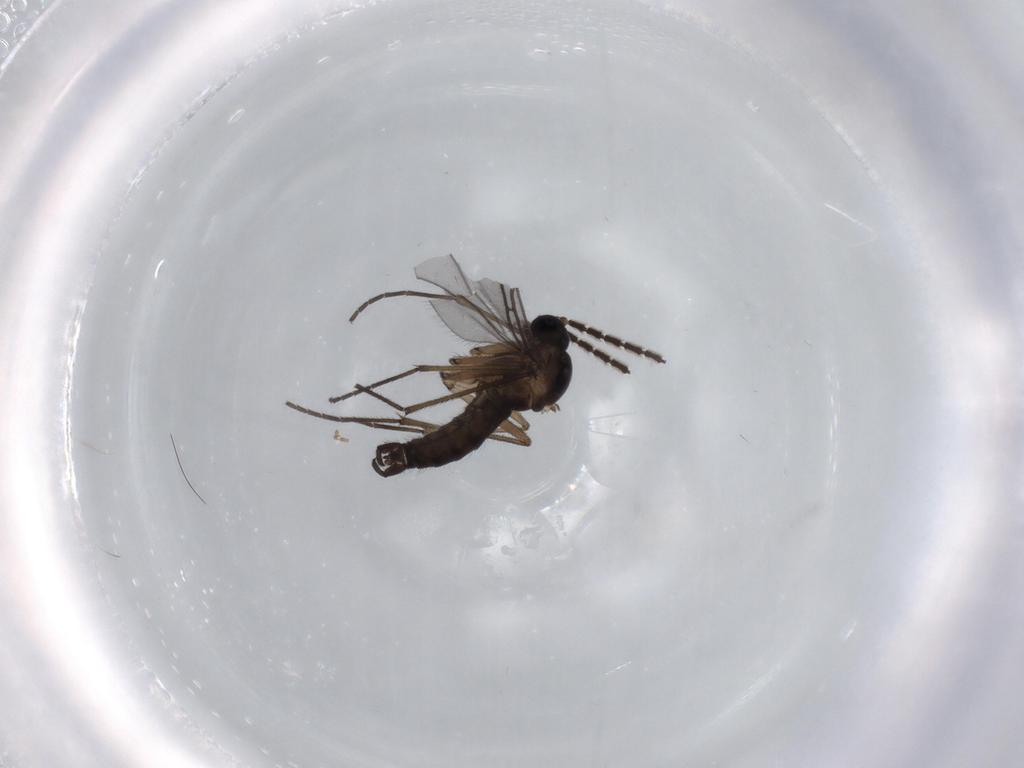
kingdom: Animalia
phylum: Arthropoda
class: Insecta
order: Diptera
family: Chironomidae
